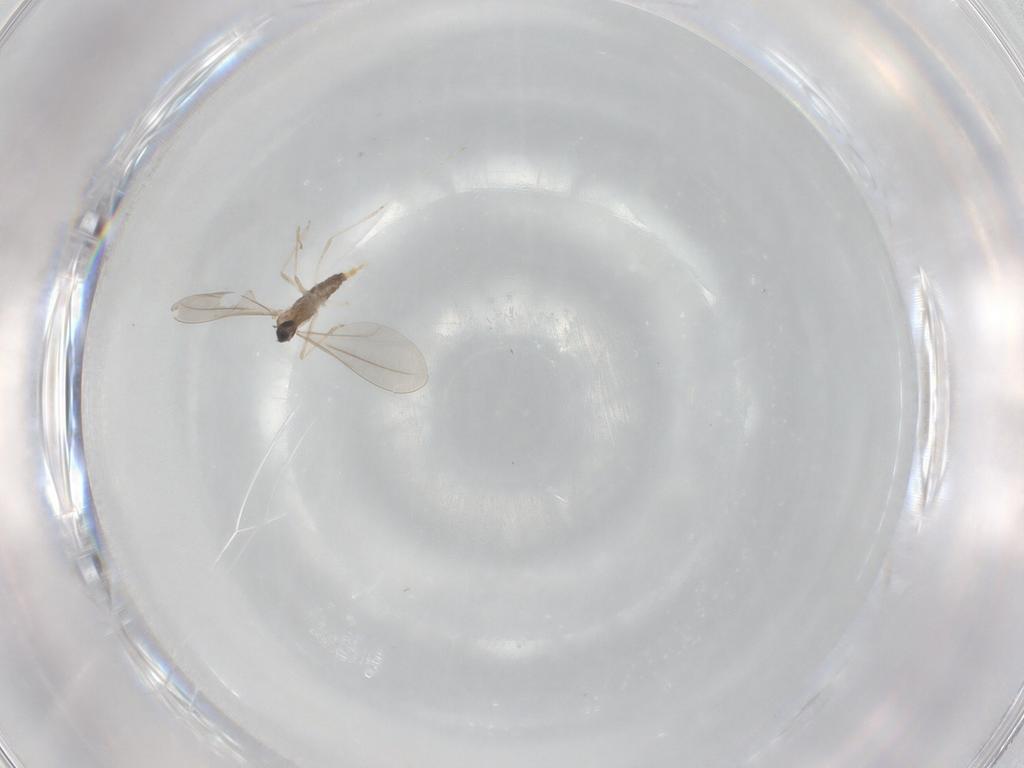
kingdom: Animalia
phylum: Arthropoda
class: Insecta
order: Diptera
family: Cecidomyiidae
